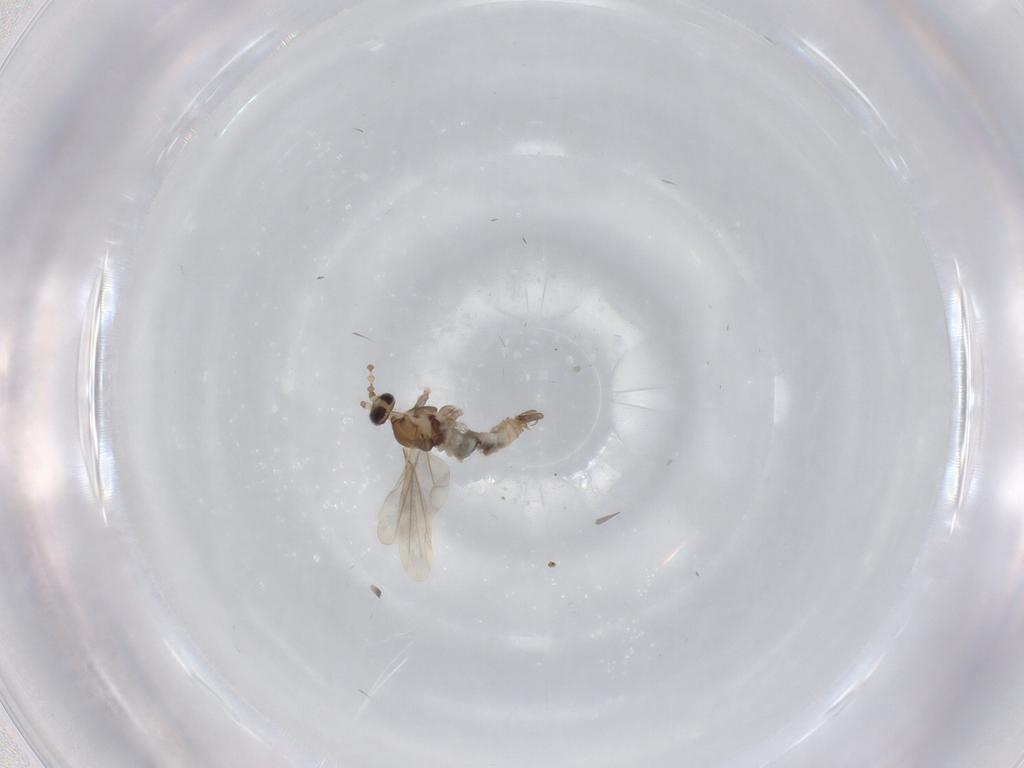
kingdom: Animalia
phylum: Arthropoda
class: Insecta
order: Diptera
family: Cecidomyiidae
